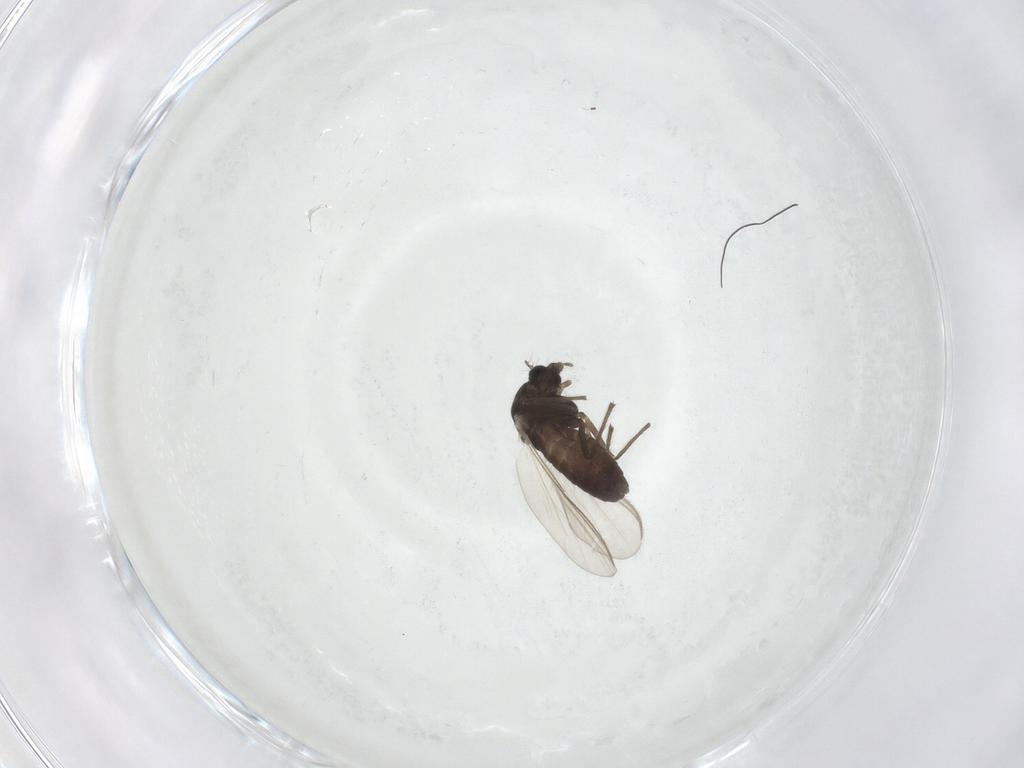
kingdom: Animalia
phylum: Arthropoda
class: Insecta
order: Diptera
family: Chironomidae
